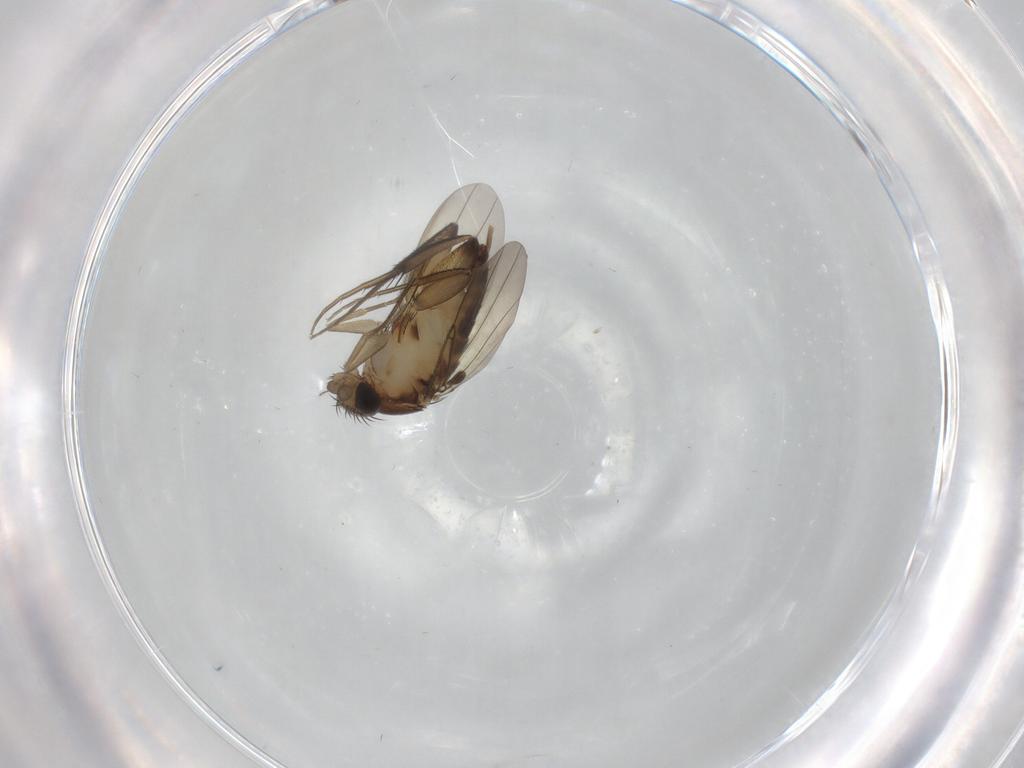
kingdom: Animalia
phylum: Arthropoda
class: Insecta
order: Diptera
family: Phoridae
